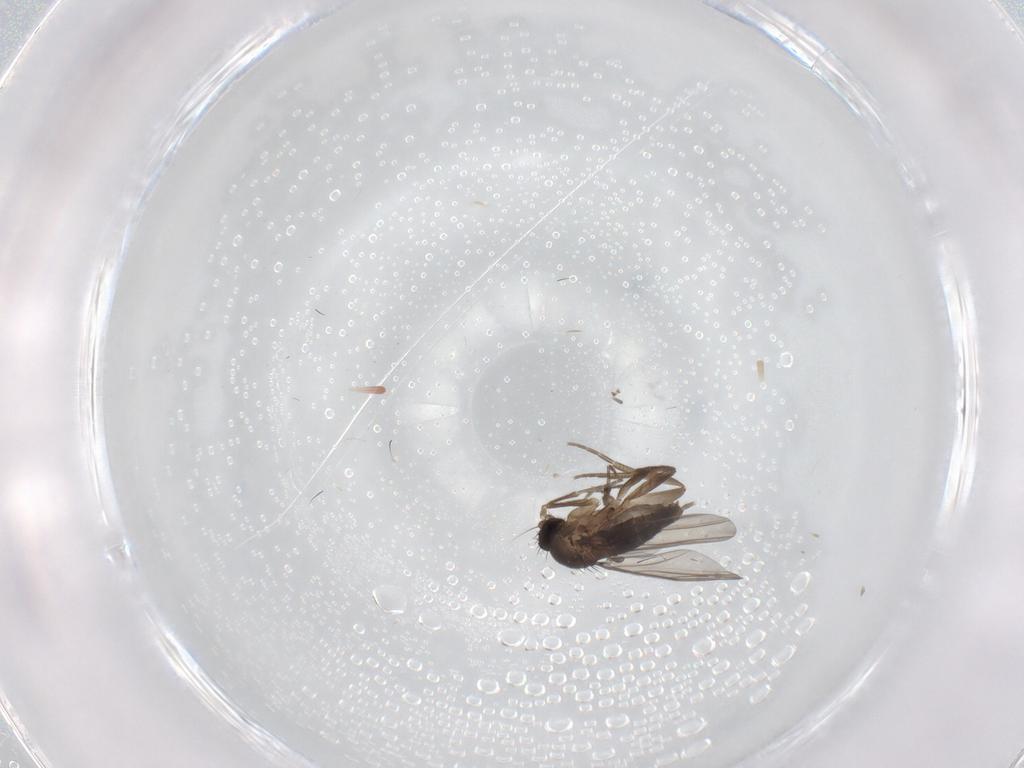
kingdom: Animalia
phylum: Arthropoda
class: Insecta
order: Diptera
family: Phoridae
